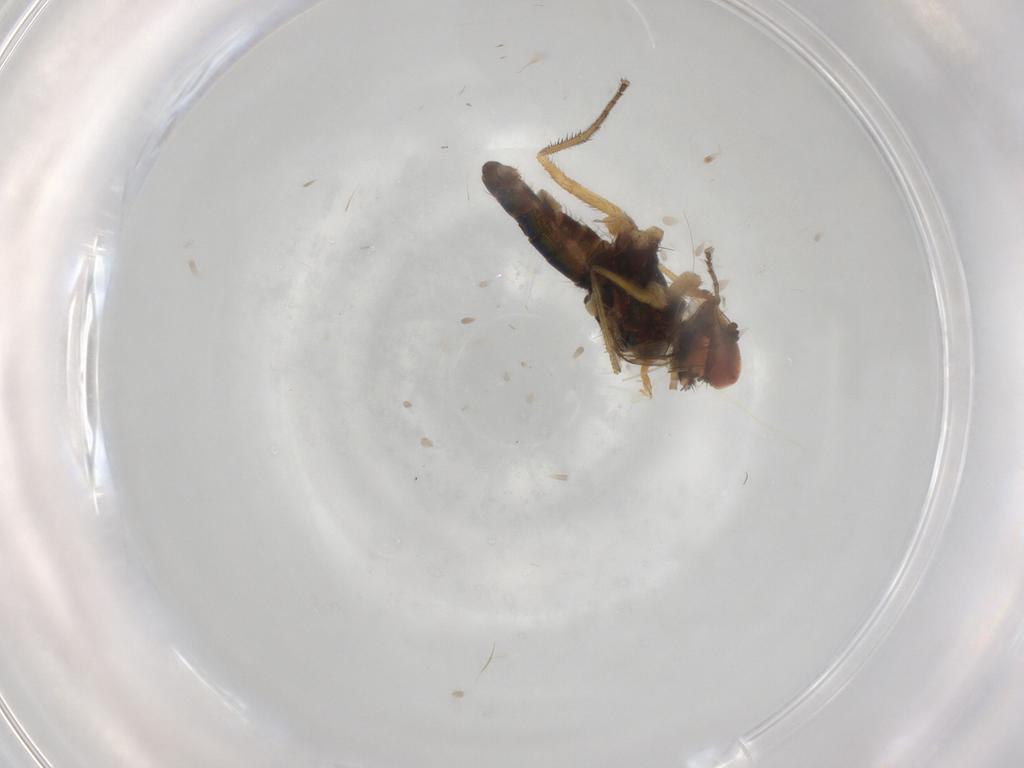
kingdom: Animalia
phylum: Arthropoda
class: Insecta
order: Diptera
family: Dolichopodidae
